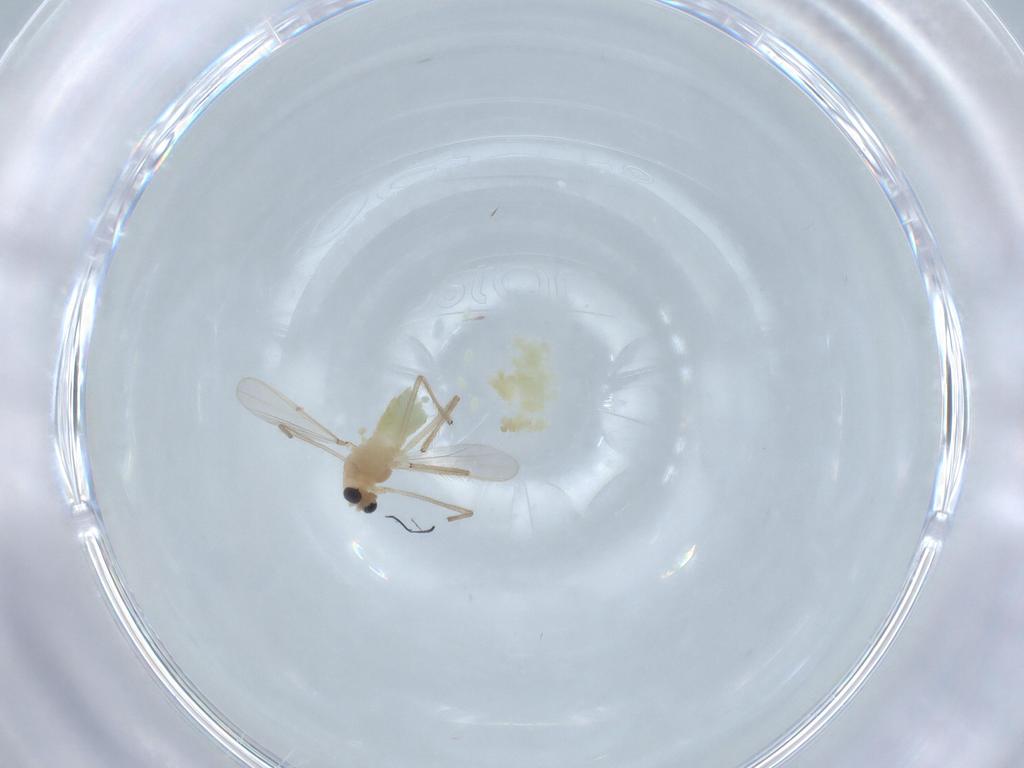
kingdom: Animalia
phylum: Arthropoda
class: Insecta
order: Diptera
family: Chironomidae
